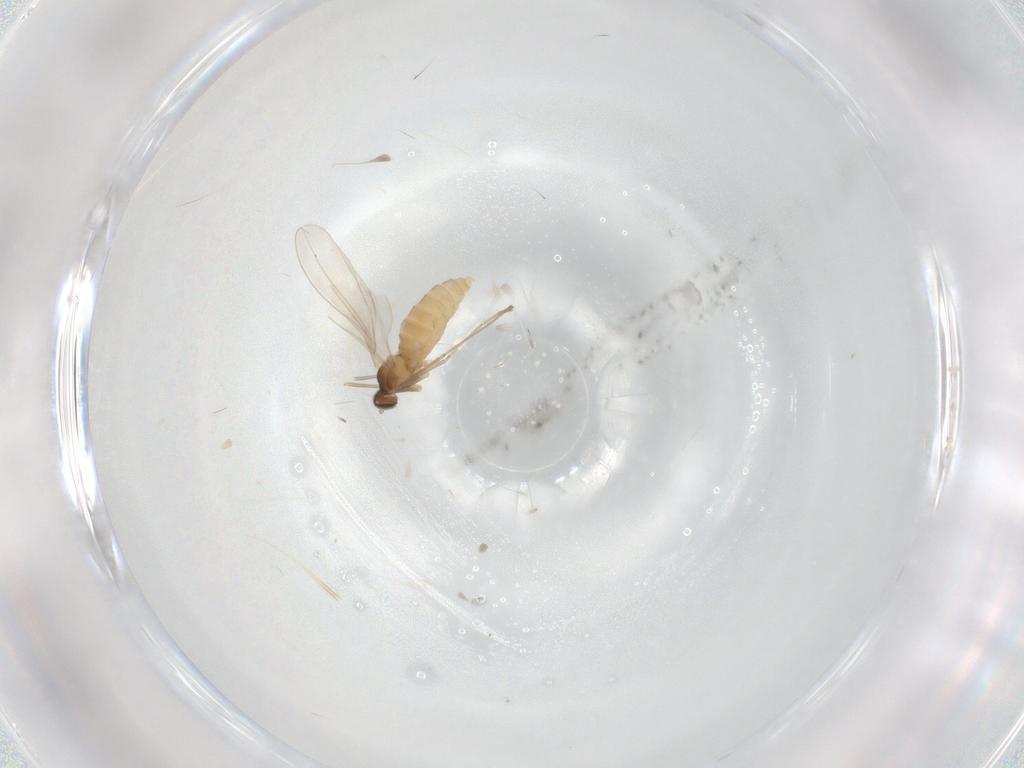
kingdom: Animalia
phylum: Arthropoda
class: Insecta
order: Diptera
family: Cecidomyiidae
